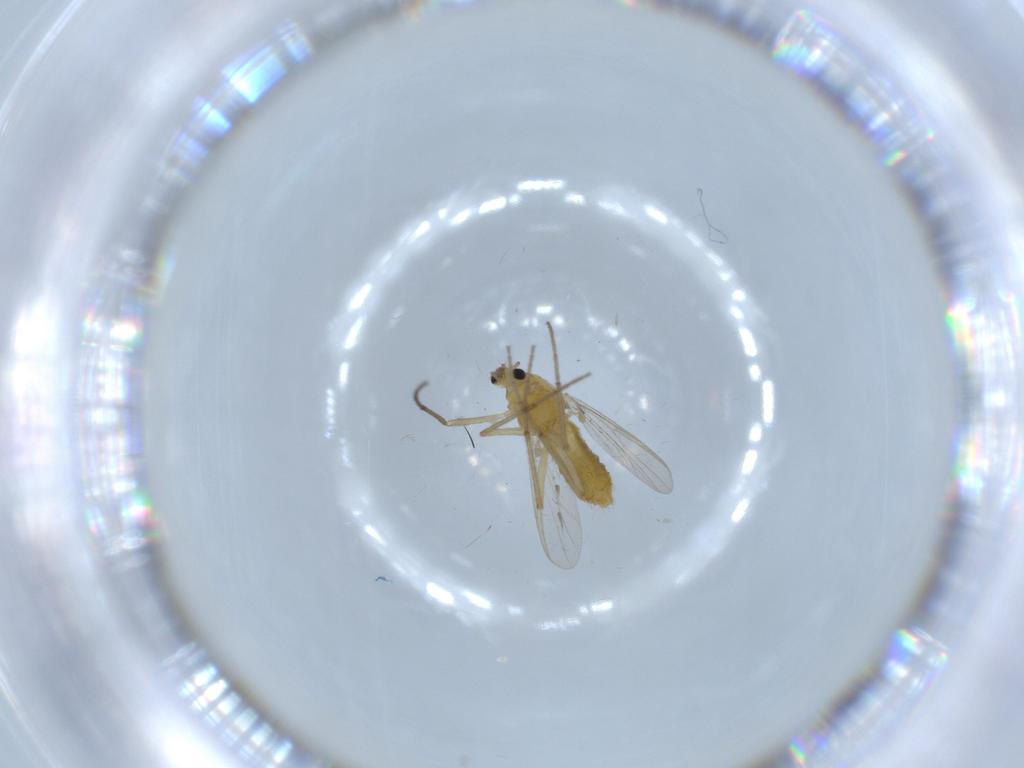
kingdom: Animalia
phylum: Arthropoda
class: Insecta
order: Diptera
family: Chironomidae
